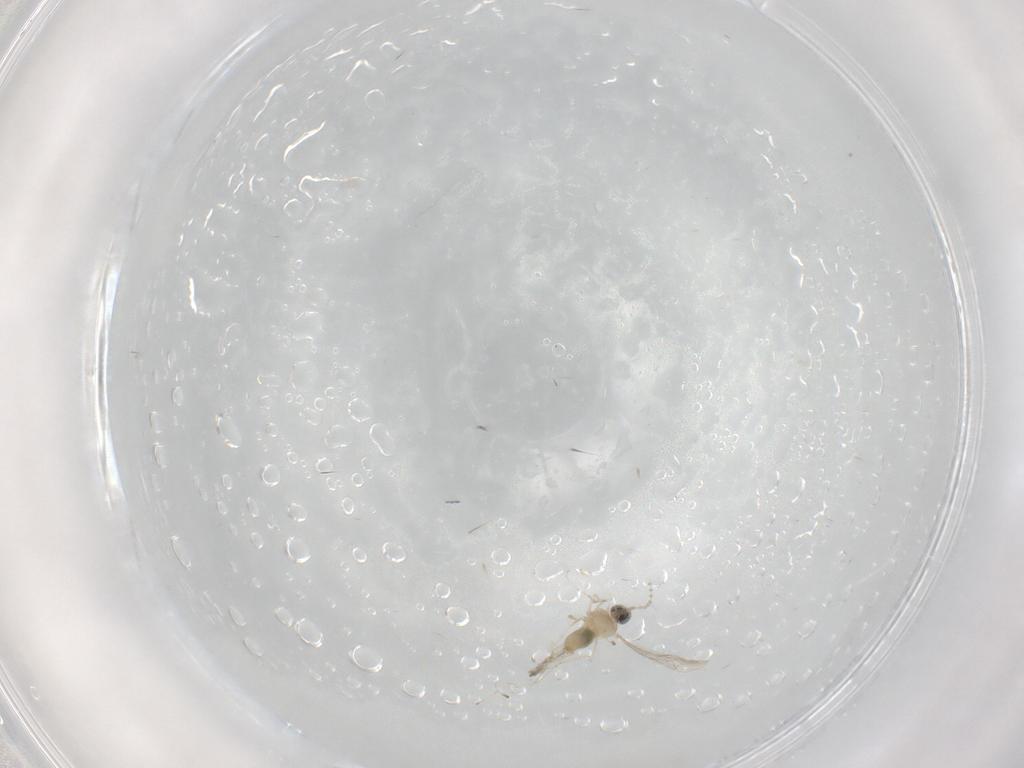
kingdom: Animalia
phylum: Arthropoda
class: Insecta
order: Diptera
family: Cecidomyiidae
